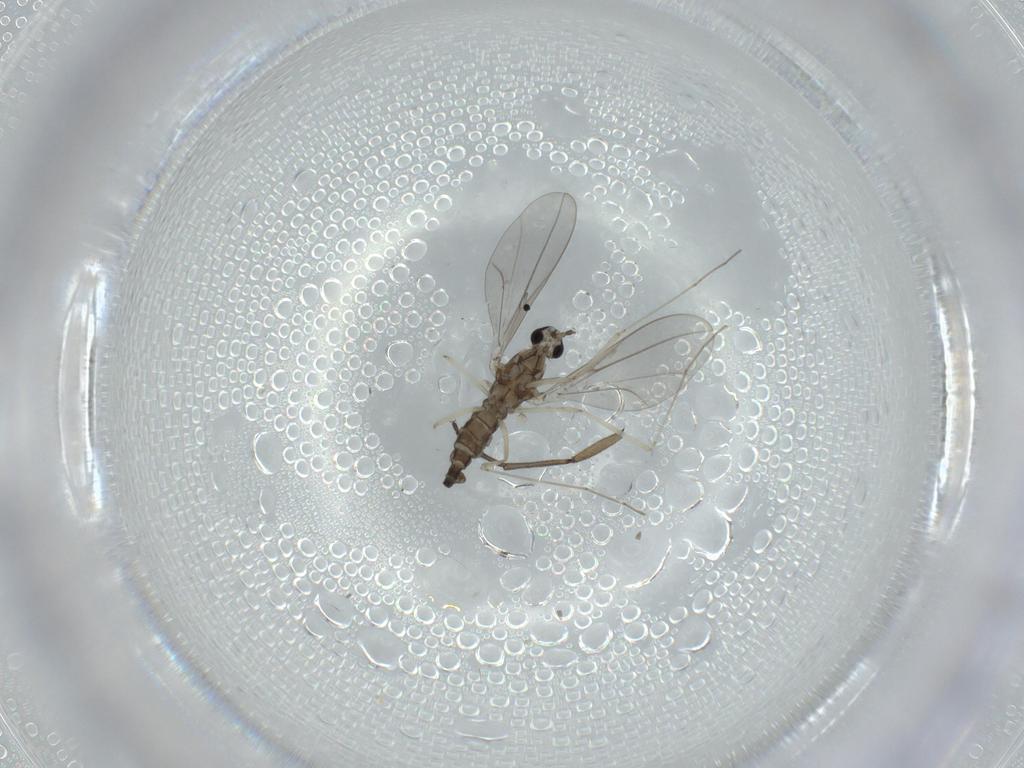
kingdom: Animalia
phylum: Arthropoda
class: Insecta
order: Diptera
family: Cecidomyiidae
